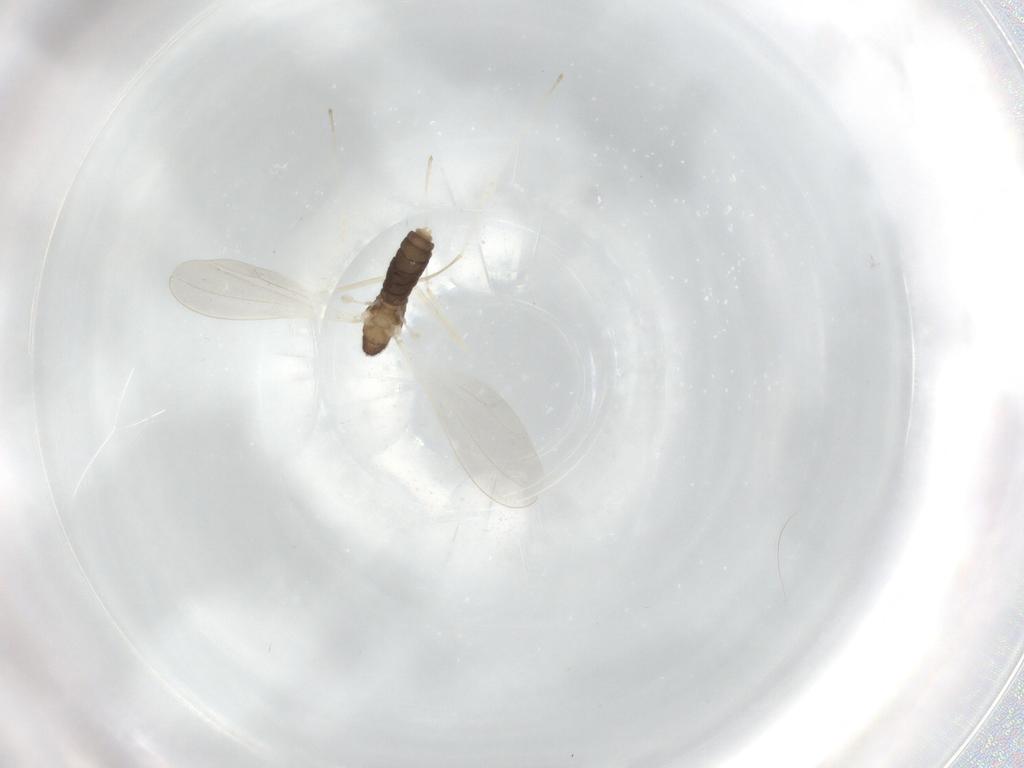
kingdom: Animalia
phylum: Arthropoda
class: Insecta
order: Diptera
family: Cecidomyiidae
